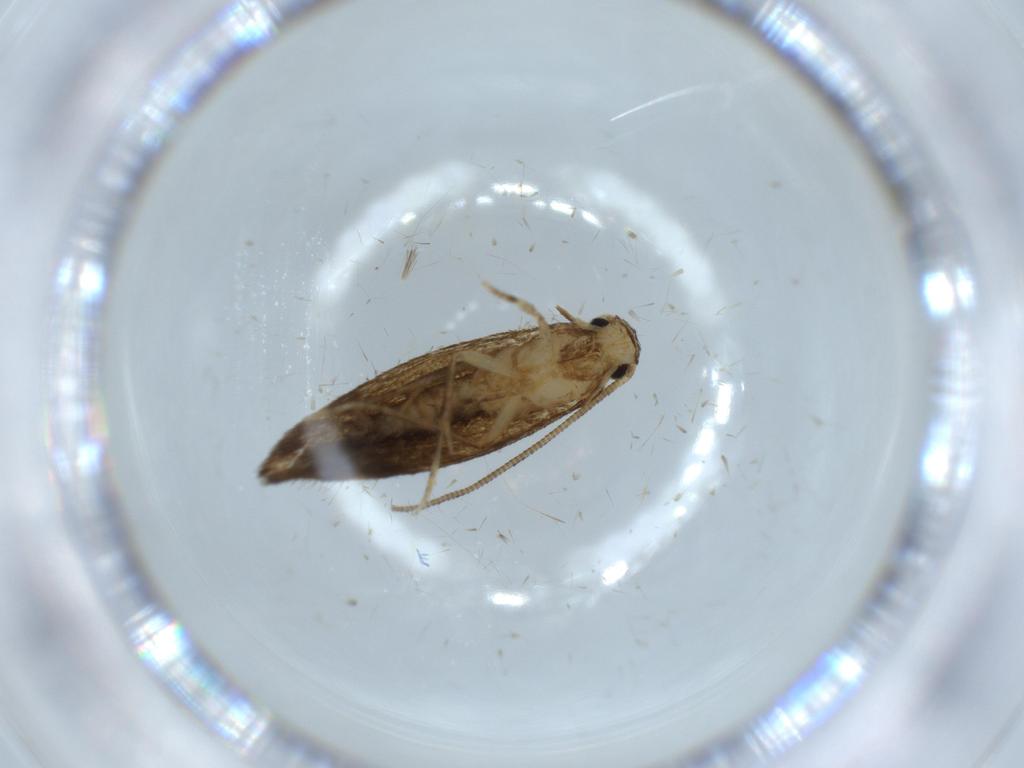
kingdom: Animalia
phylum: Arthropoda
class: Insecta
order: Lepidoptera
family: Tineidae
